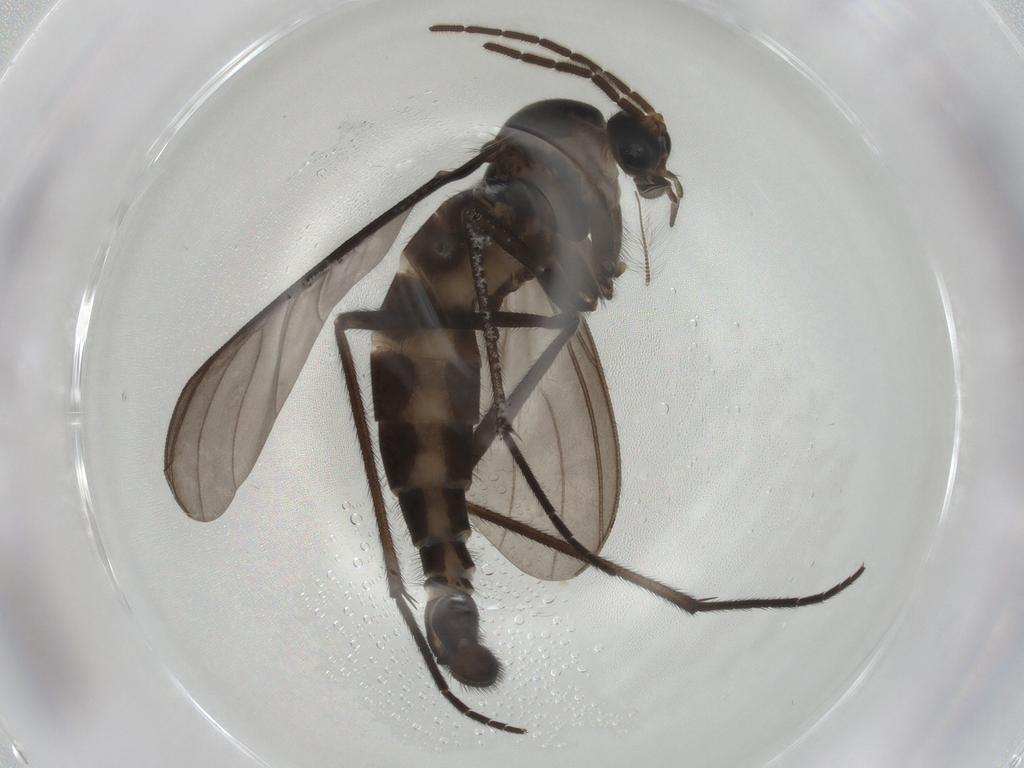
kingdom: Animalia
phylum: Arthropoda
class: Insecta
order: Diptera
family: Sciaridae
